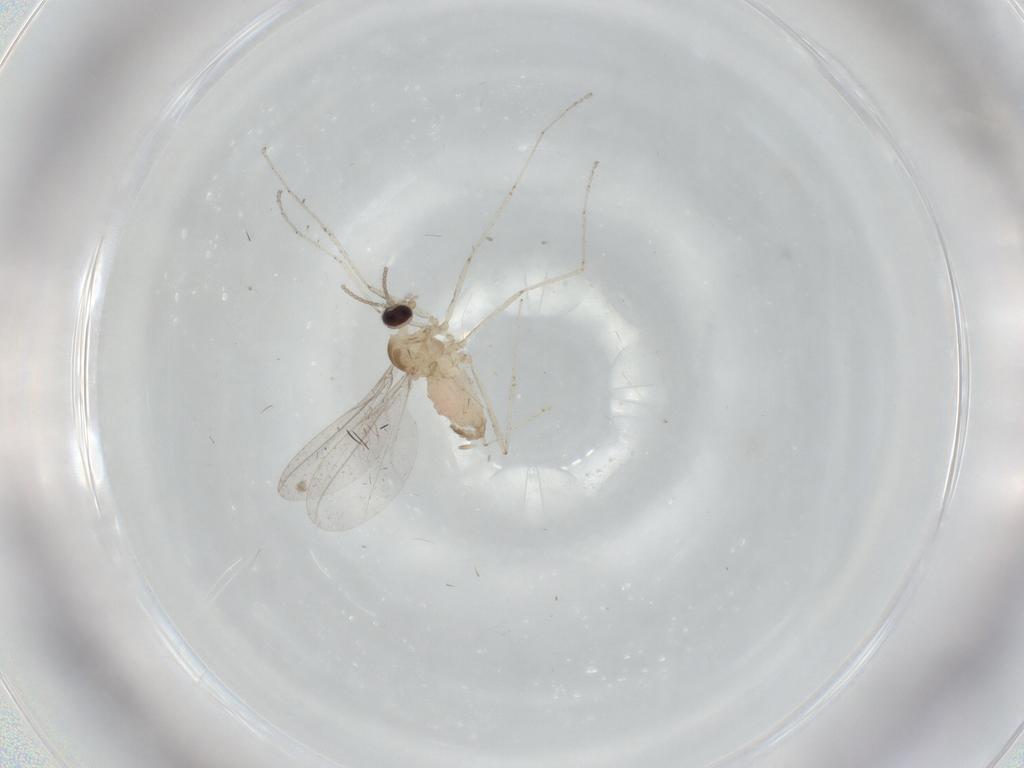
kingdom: Animalia
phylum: Arthropoda
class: Insecta
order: Diptera
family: Cecidomyiidae
